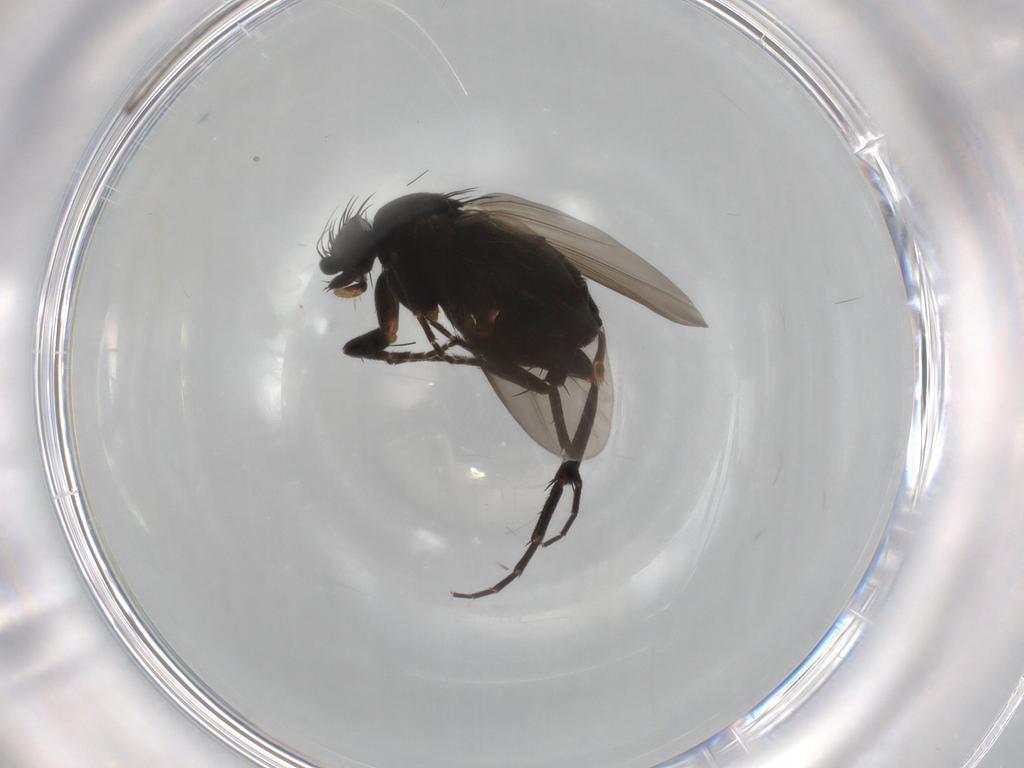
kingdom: Animalia
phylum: Arthropoda
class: Insecta
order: Diptera
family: Phoridae
